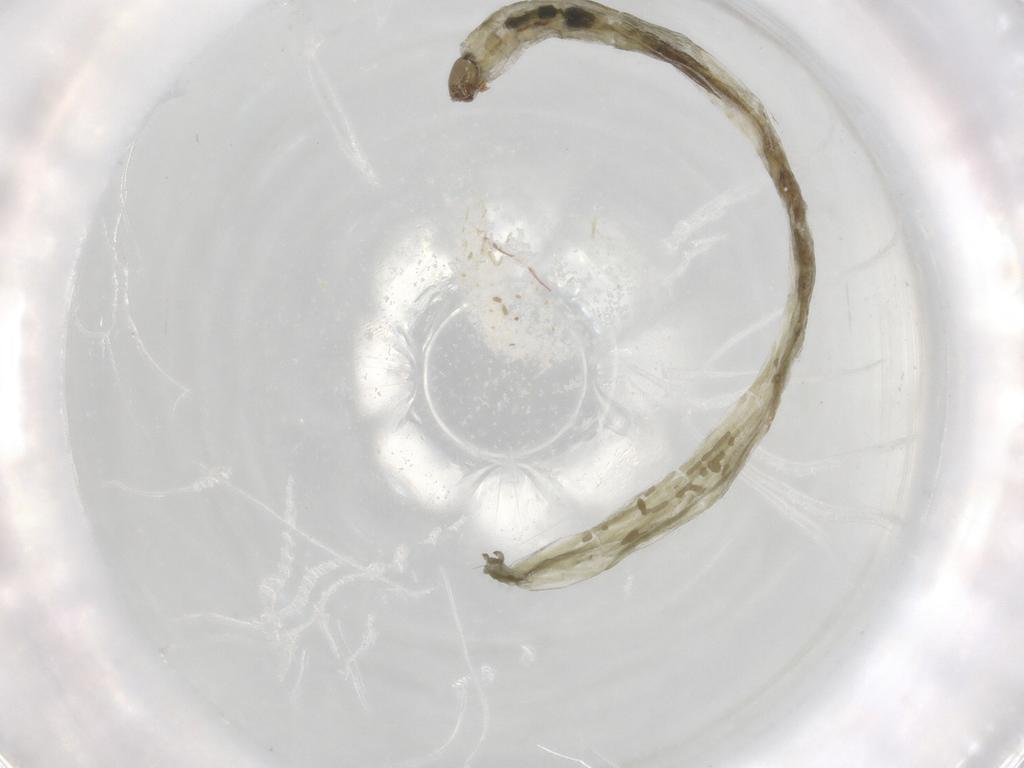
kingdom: Animalia
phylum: Arthropoda
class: Insecta
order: Diptera
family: Chironomidae
